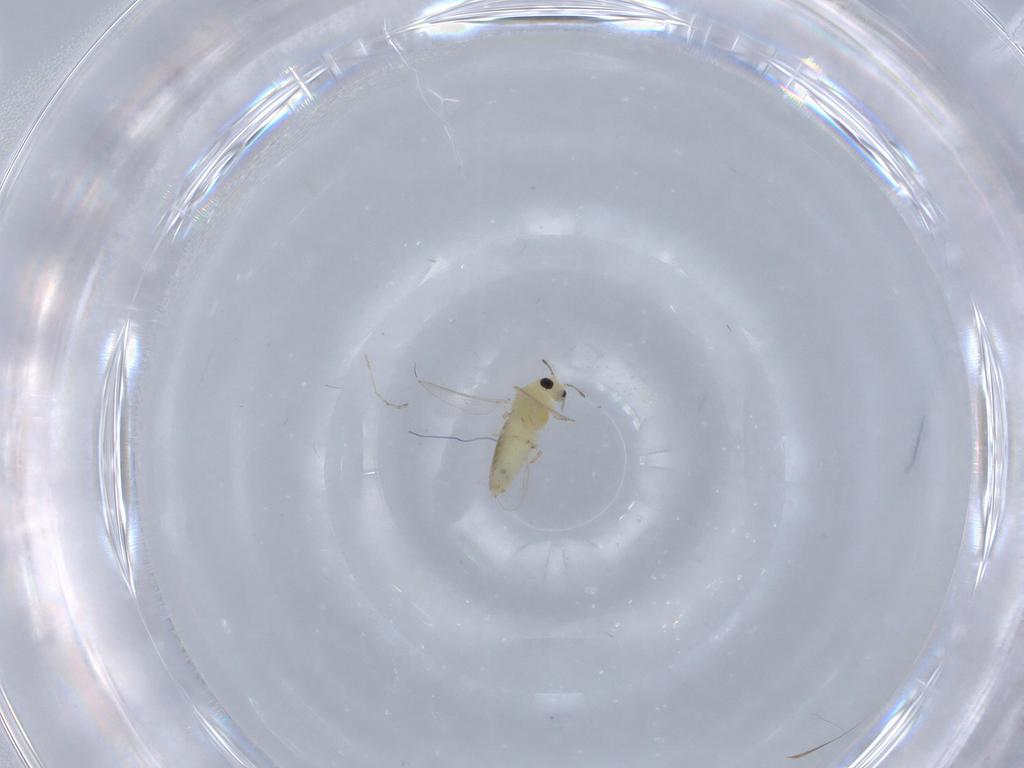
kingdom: Animalia
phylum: Arthropoda
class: Insecta
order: Diptera
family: Chironomidae
